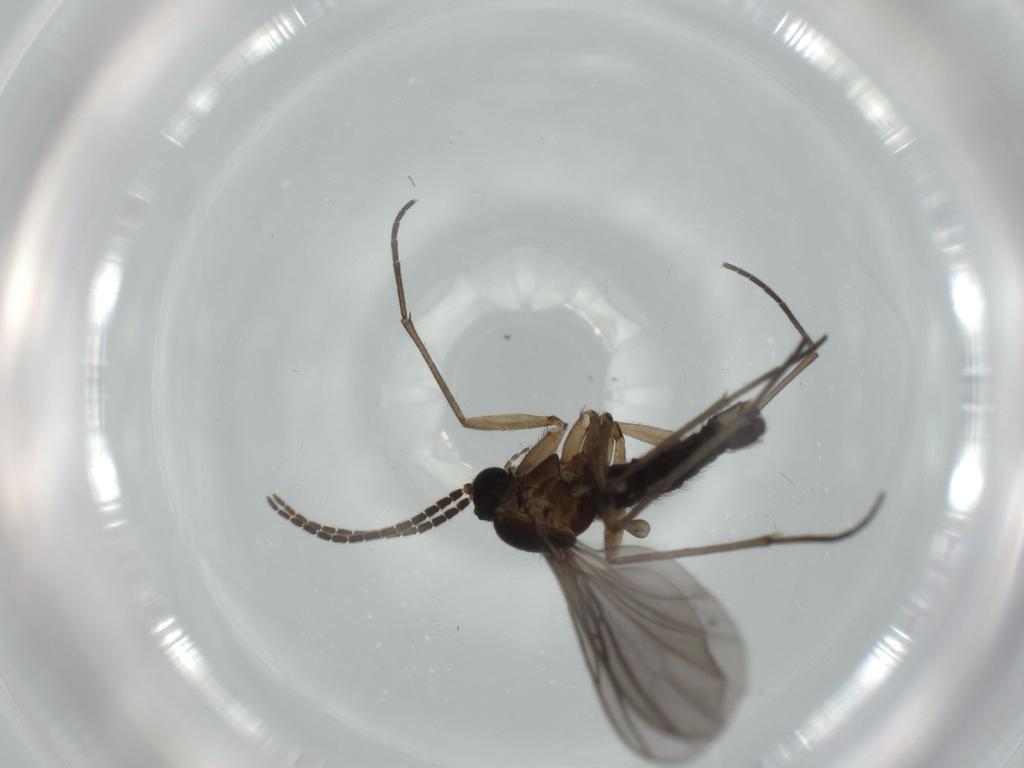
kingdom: Animalia
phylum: Arthropoda
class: Insecta
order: Diptera
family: Sciaridae
